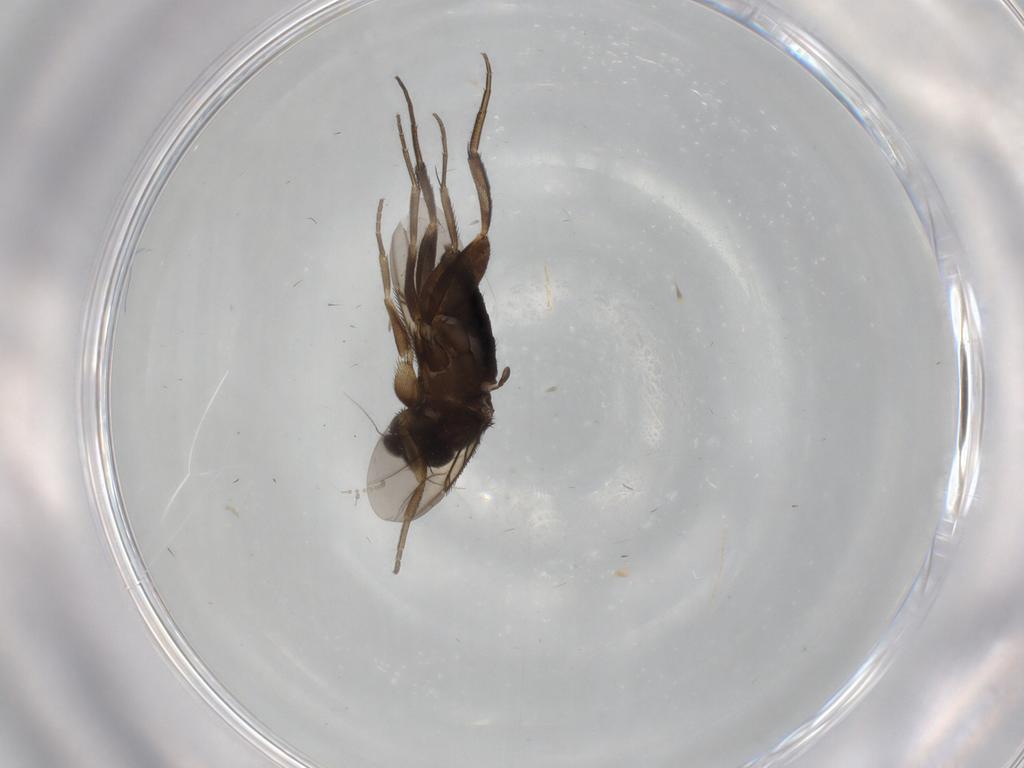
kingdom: Animalia
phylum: Arthropoda
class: Insecta
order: Diptera
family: Phoridae
